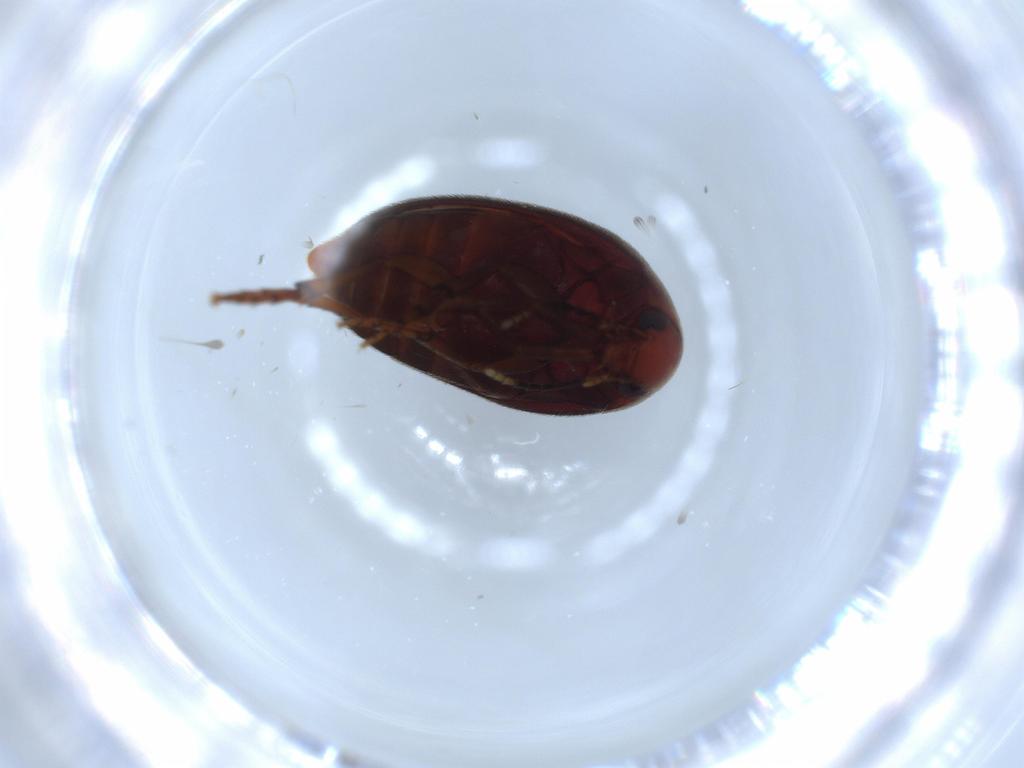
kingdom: Animalia
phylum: Arthropoda
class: Insecta
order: Coleoptera
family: Eucinetidae
